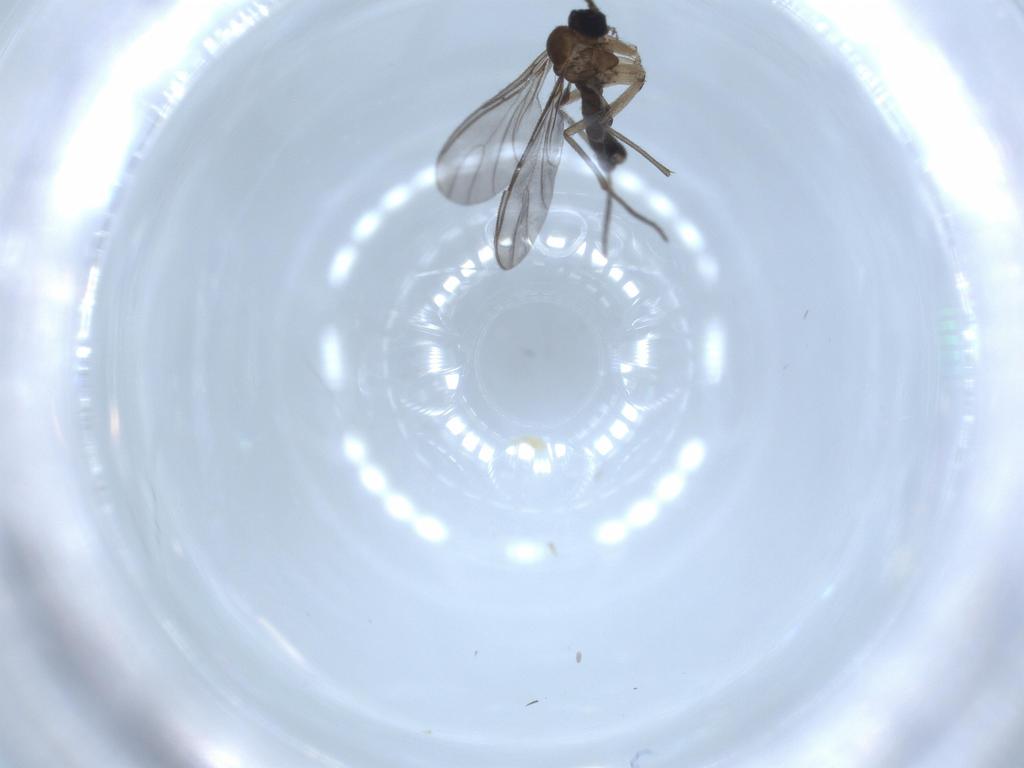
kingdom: Animalia
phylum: Arthropoda
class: Insecta
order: Diptera
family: Sciaridae
